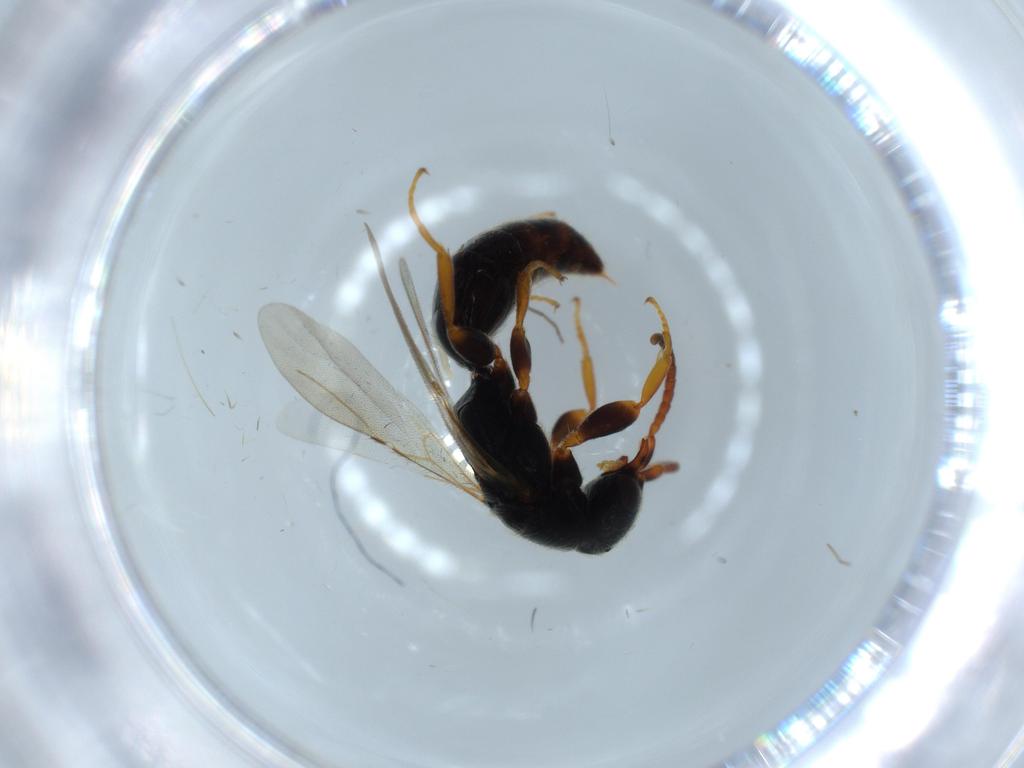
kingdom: Animalia
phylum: Arthropoda
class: Insecta
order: Hymenoptera
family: Bethylidae
